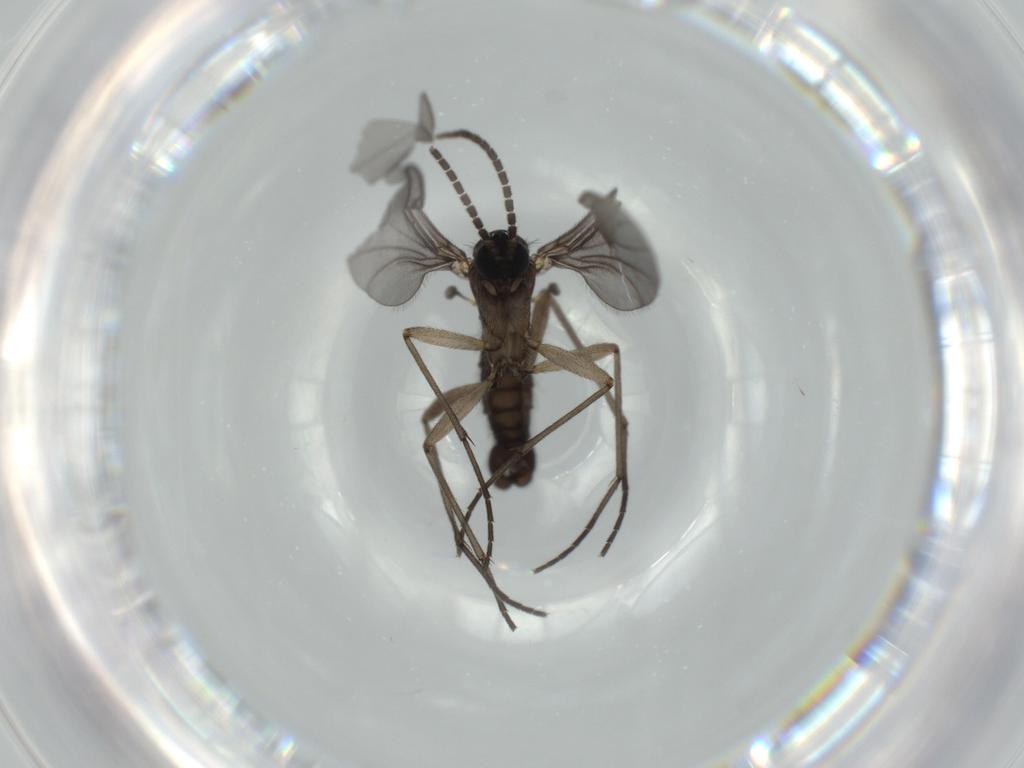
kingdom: Animalia
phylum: Arthropoda
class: Insecta
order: Diptera
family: Sciaridae
